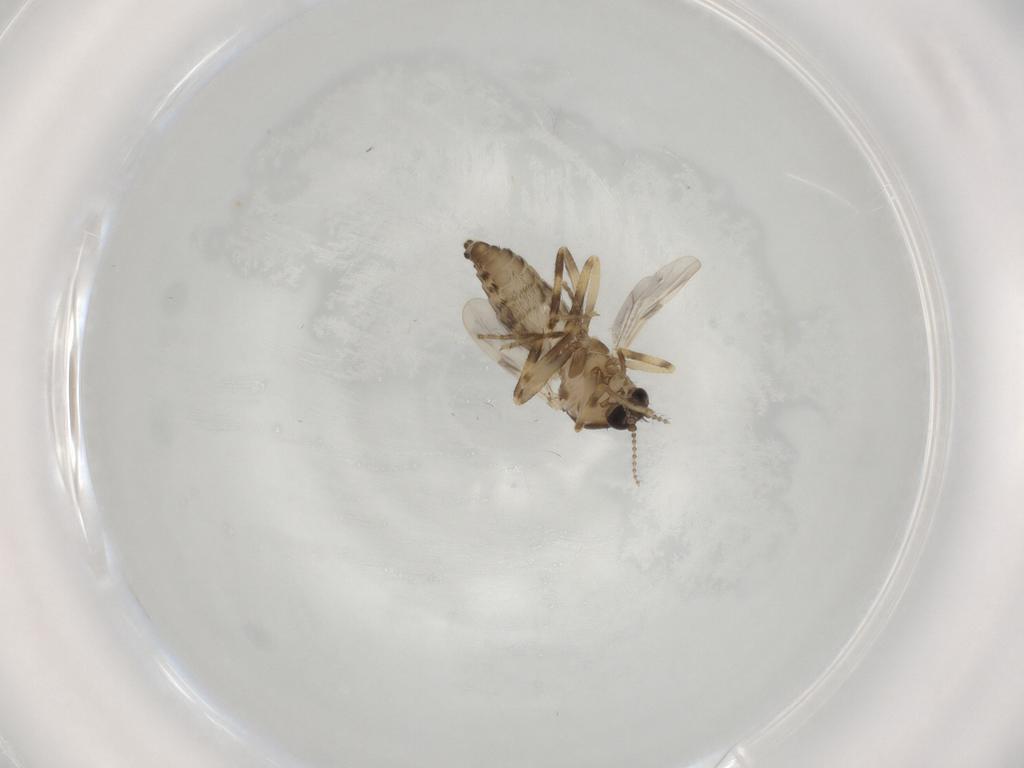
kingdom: Animalia
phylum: Arthropoda
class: Insecta
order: Diptera
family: Ceratopogonidae
